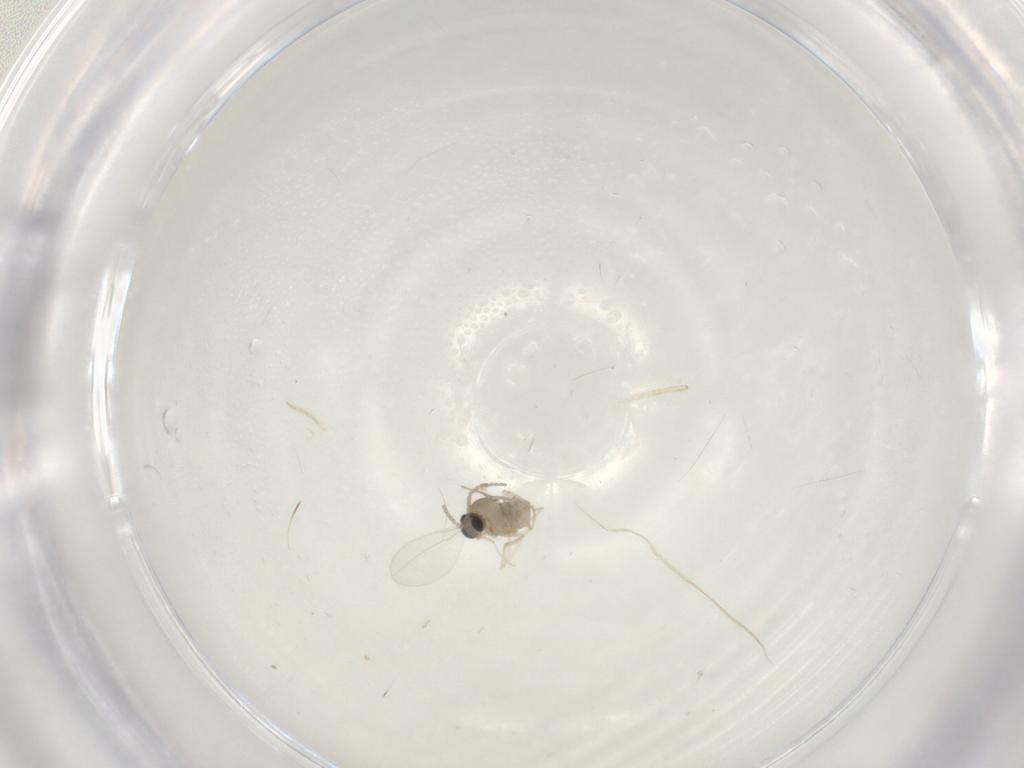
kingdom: Animalia
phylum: Arthropoda
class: Insecta
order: Diptera
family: Cecidomyiidae
